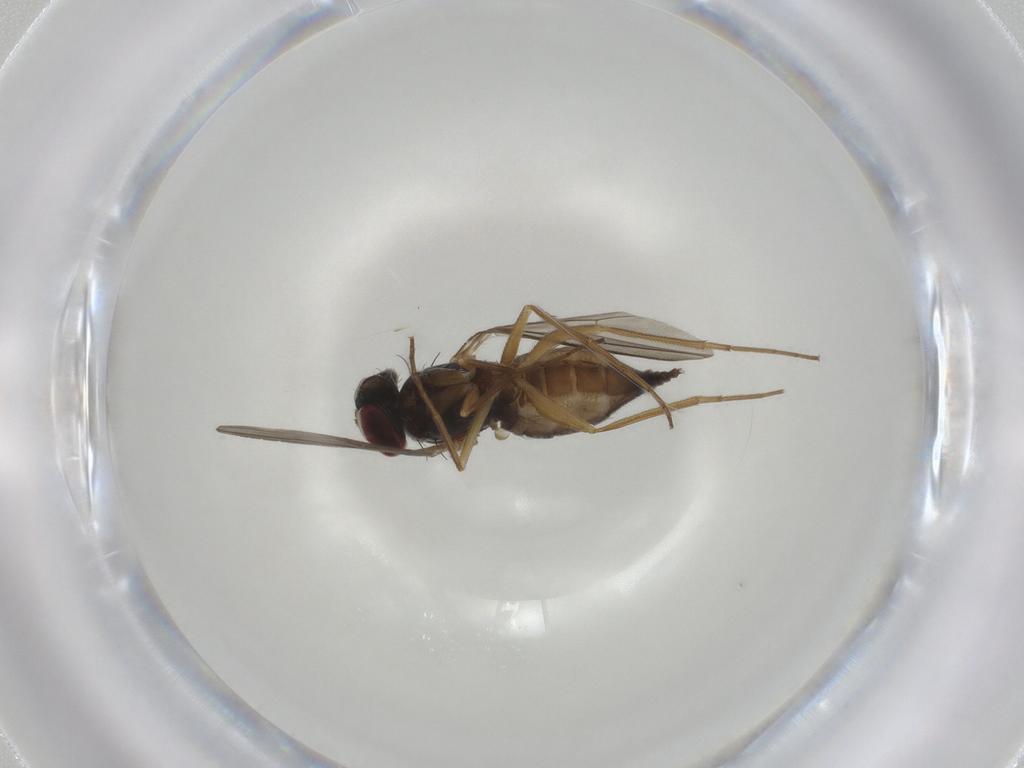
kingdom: Animalia
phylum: Arthropoda
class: Insecta
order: Diptera
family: Dolichopodidae
